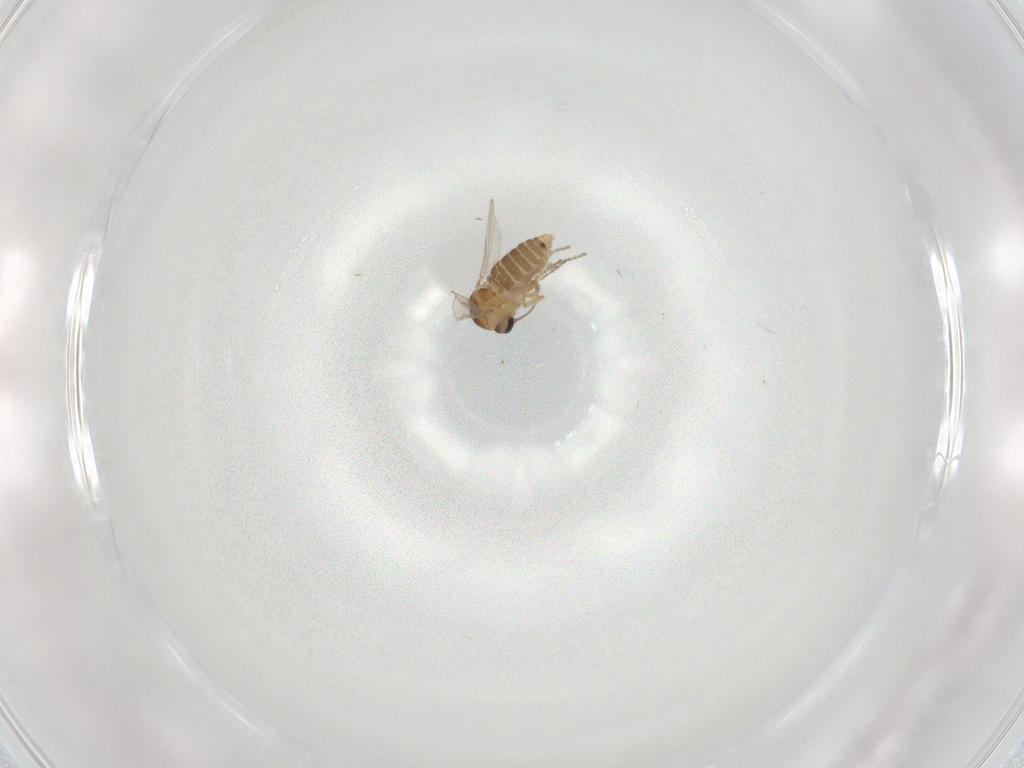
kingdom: Animalia
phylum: Arthropoda
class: Insecta
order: Diptera
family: Ceratopogonidae
